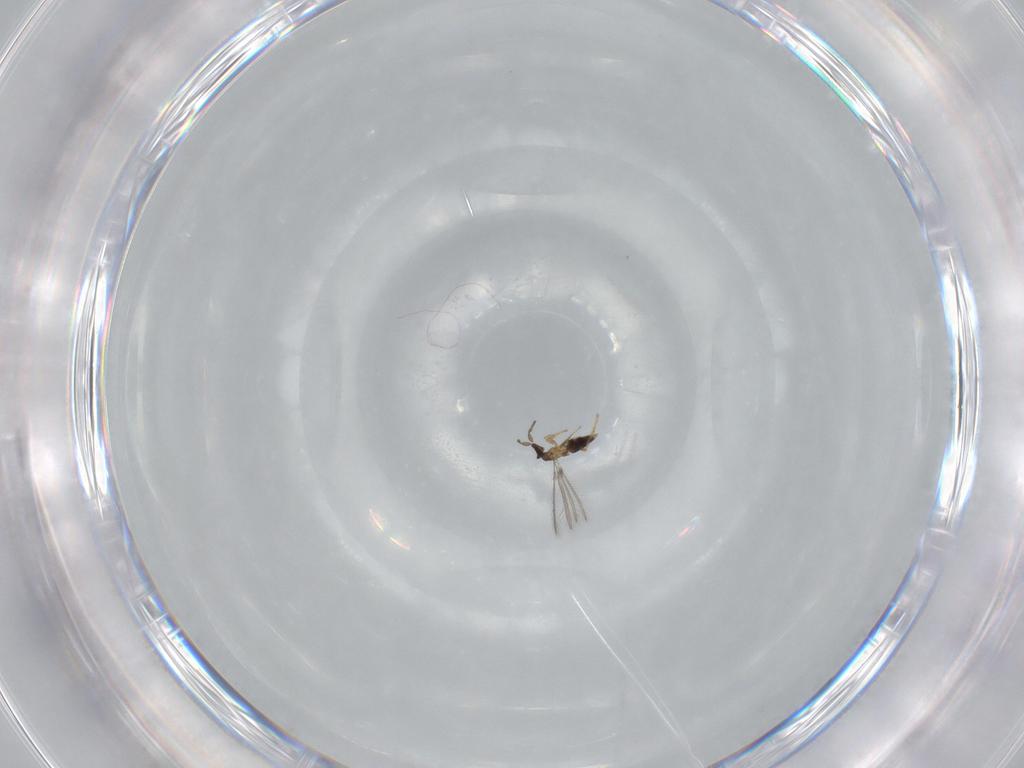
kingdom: Animalia
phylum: Arthropoda
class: Insecta
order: Hymenoptera
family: Mymaridae
